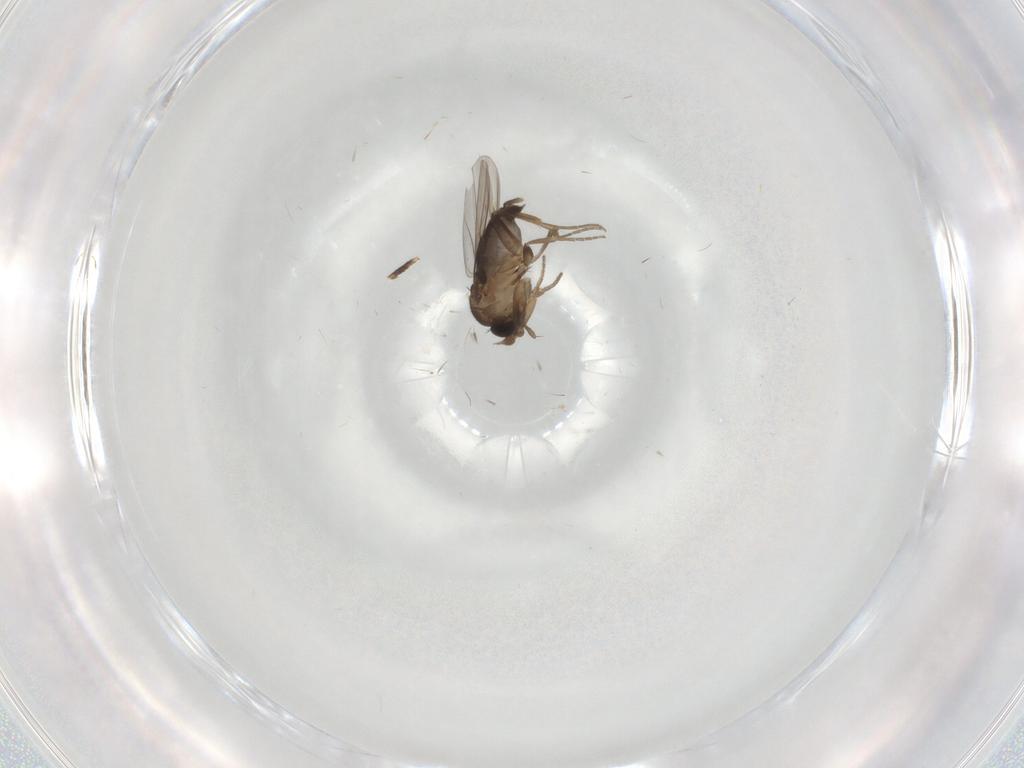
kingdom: Animalia
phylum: Arthropoda
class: Insecta
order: Diptera
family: Phoridae
